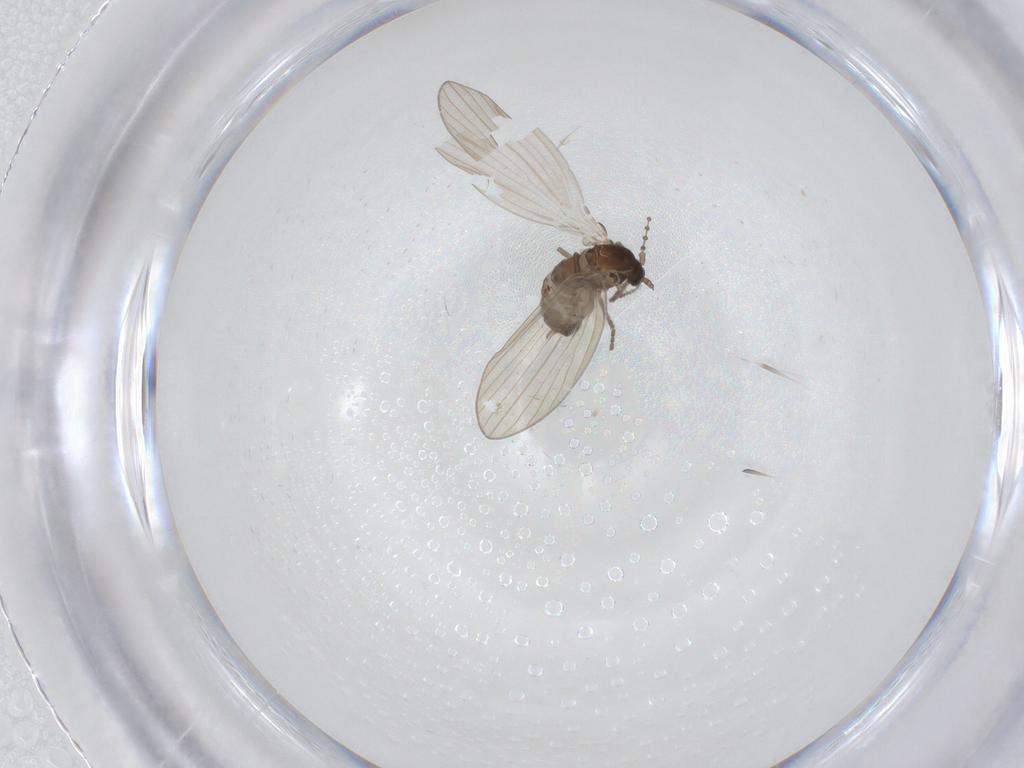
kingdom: Animalia
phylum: Arthropoda
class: Insecta
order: Diptera
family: Psychodidae
